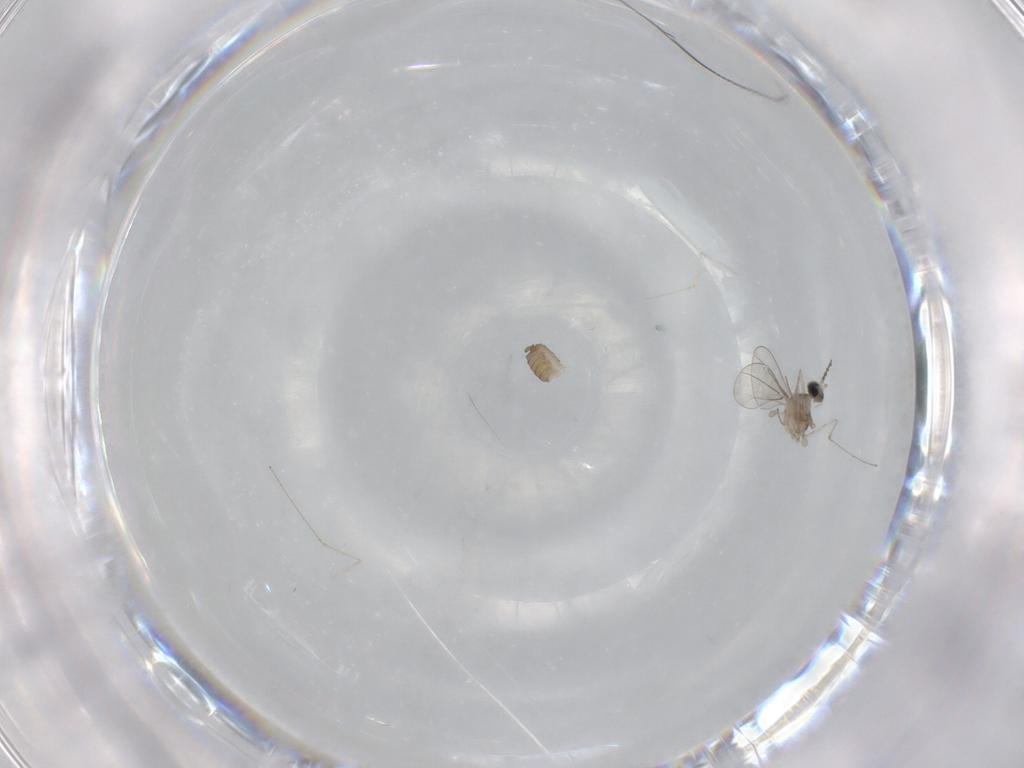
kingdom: Animalia
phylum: Arthropoda
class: Insecta
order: Diptera
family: Cecidomyiidae
